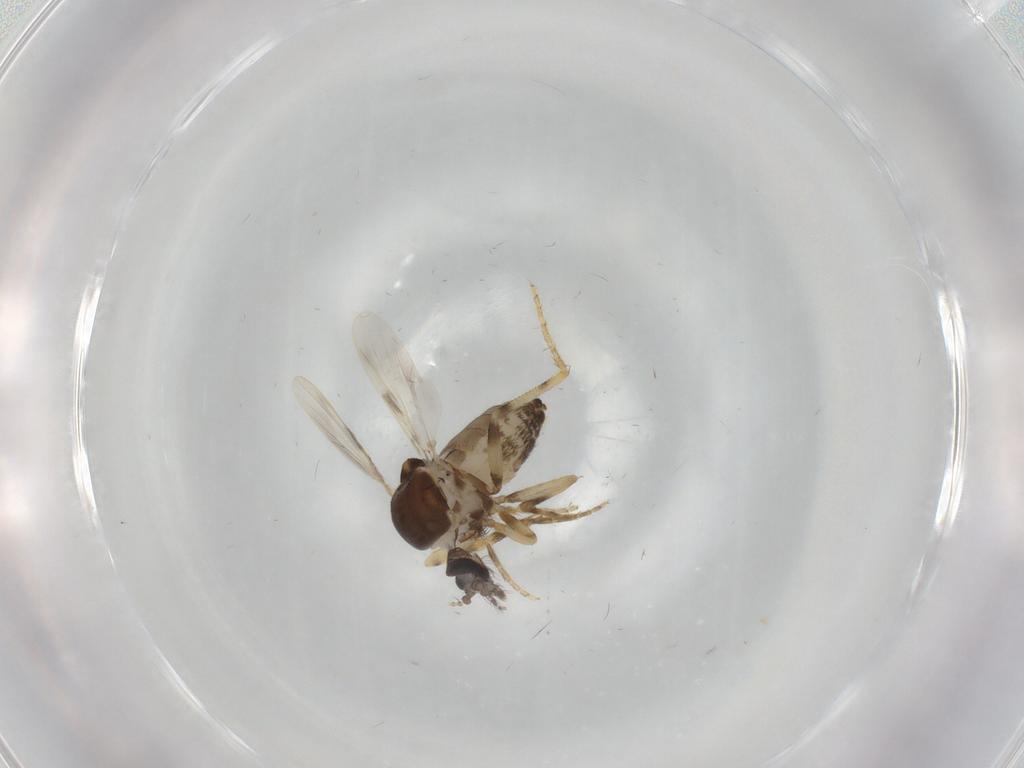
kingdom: Animalia
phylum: Arthropoda
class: Insecta
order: Diptera
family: Ceratopogonidae
